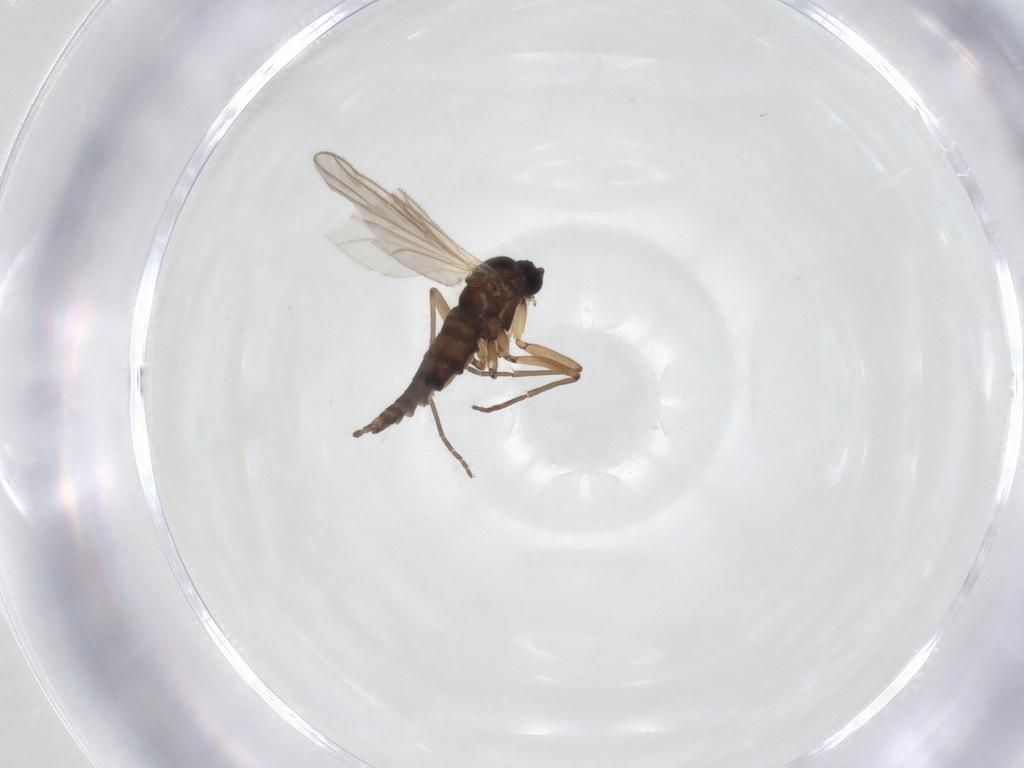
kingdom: Animalia
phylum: Arthropoda
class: Insecta
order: Diptera
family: Sciaridae
